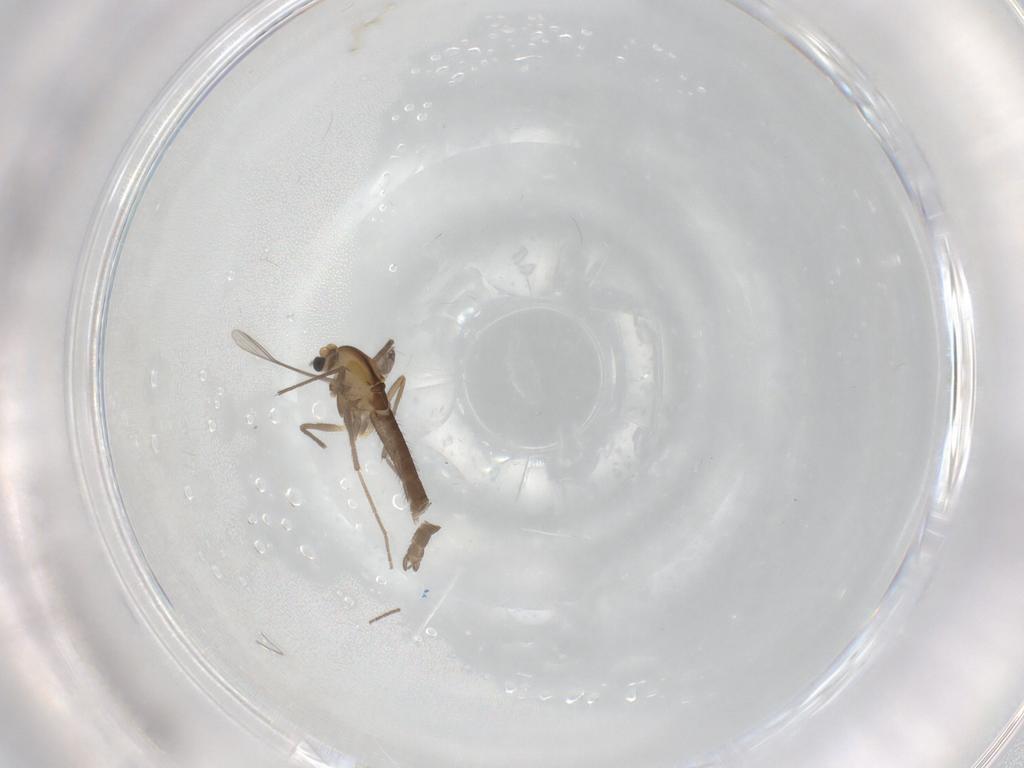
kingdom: Animalia
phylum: Arthropoda
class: Insecta
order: Diptera
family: Chironomidae
